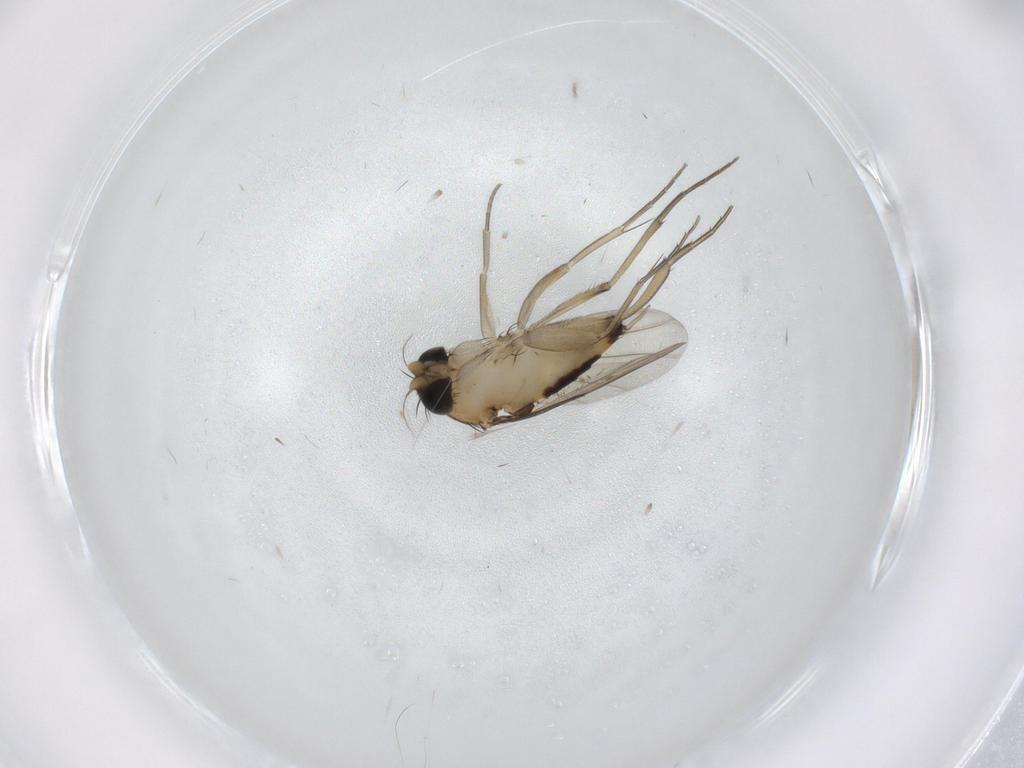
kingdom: Animalia
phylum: Arthropoda
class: Insecta
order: Diptera
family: Phoridae
